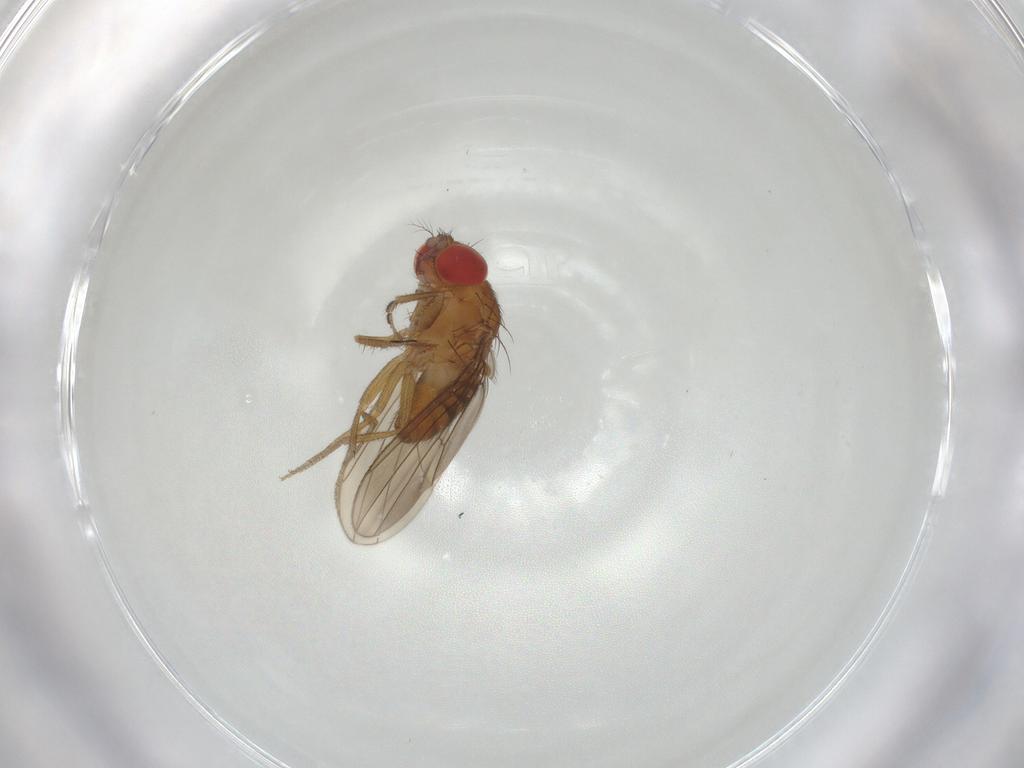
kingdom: Animalia
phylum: Arthropoda
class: Insecta
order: Diptera
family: Drosophilidae
